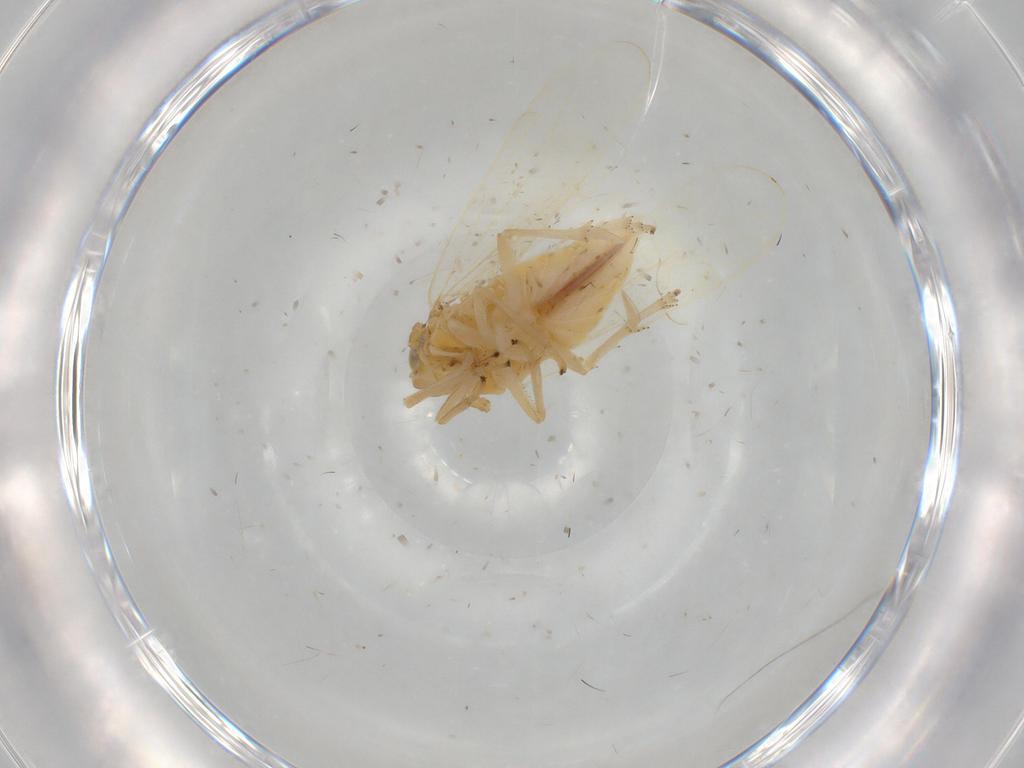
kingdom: Animalia
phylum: Arthropoda
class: Insecta
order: Hemiptera
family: Delphacidae
